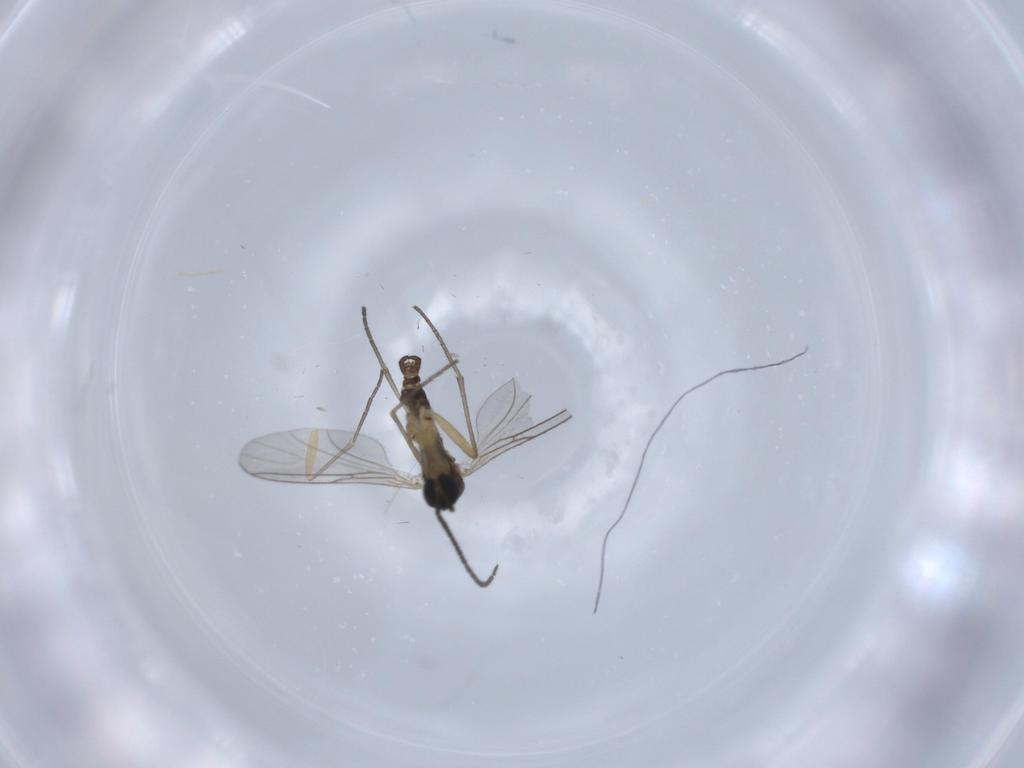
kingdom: Animalia
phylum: Arthropoda
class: Insecta
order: Diptera
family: Sciaridae
